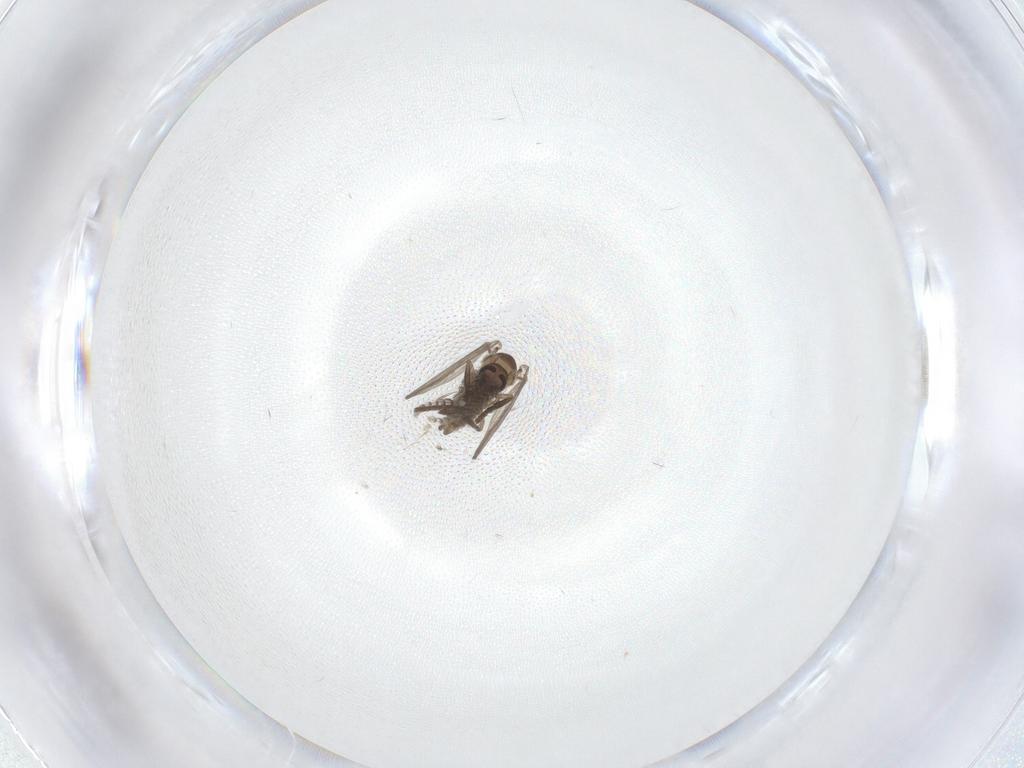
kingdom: Animalia
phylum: Arthropoda
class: Insecta
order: Diptera
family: Psychodidae
